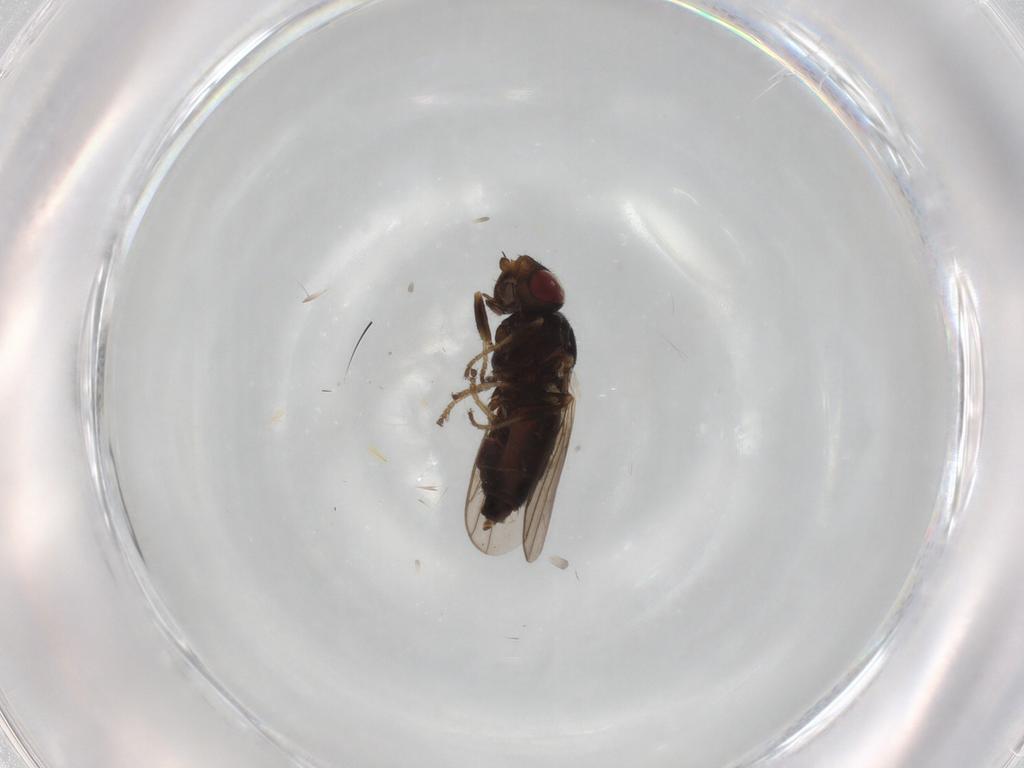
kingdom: Animalia
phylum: Arthropoda
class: Insecta
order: Diptera
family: Chloropidae
